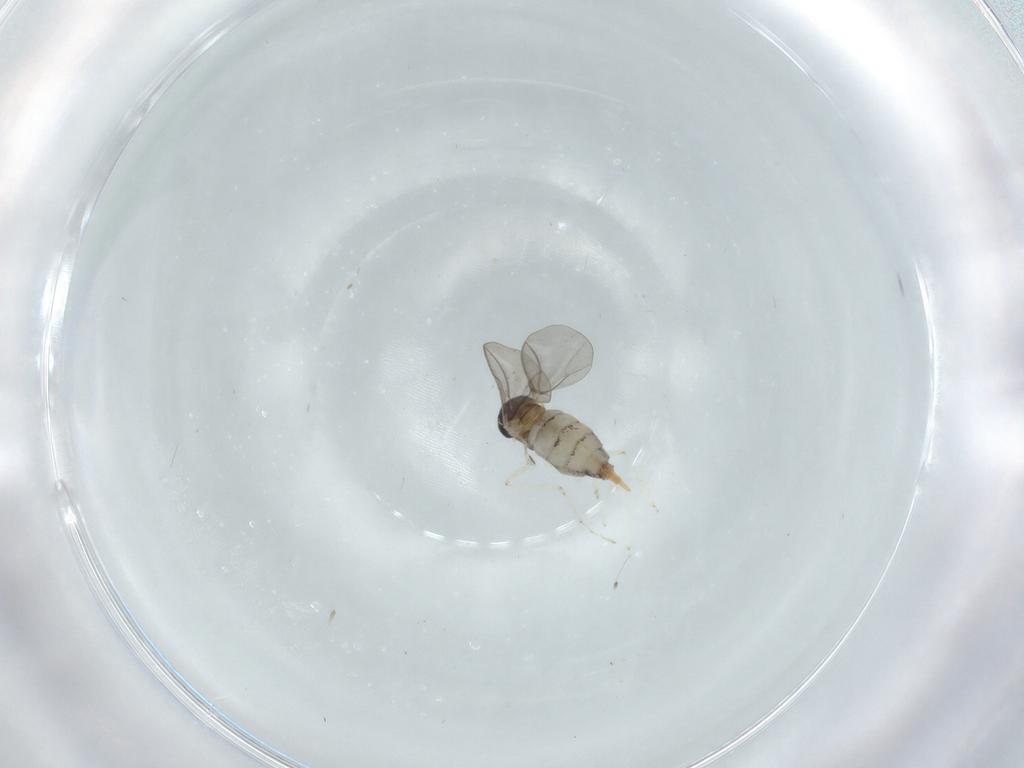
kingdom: Animalia
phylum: Arthropoda
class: Insecta
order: Diptera
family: Cecidomyiidae
